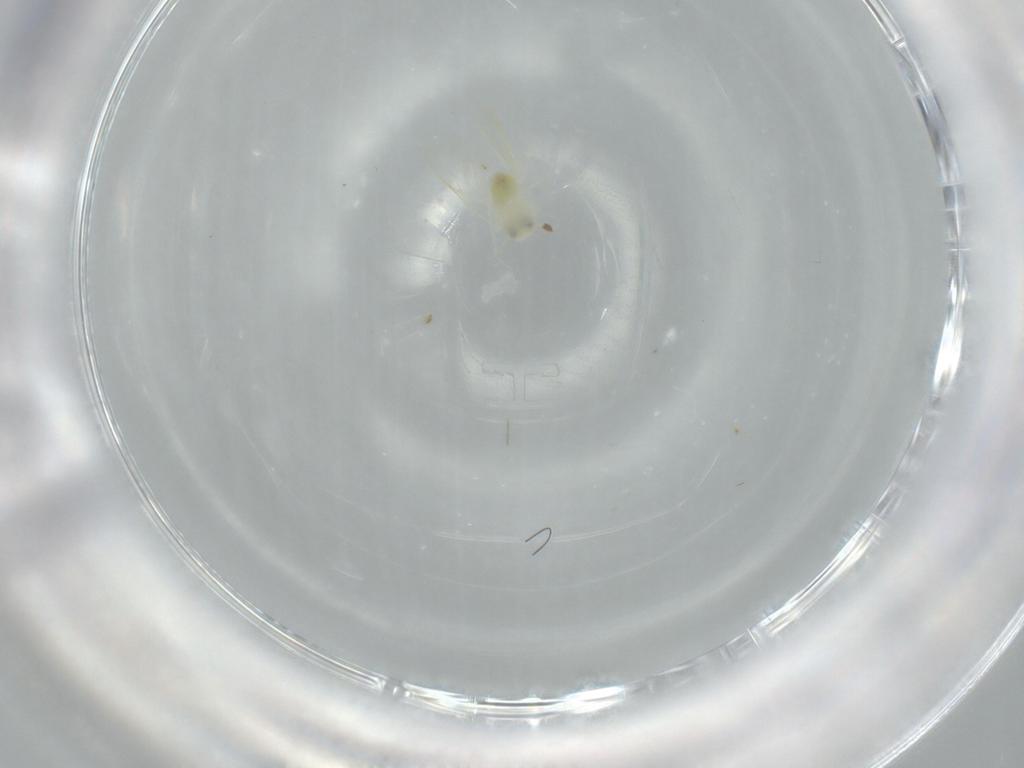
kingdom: Animalia
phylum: Arthropoda
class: Insecta
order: Hemiptera
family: Aleyrodidae
